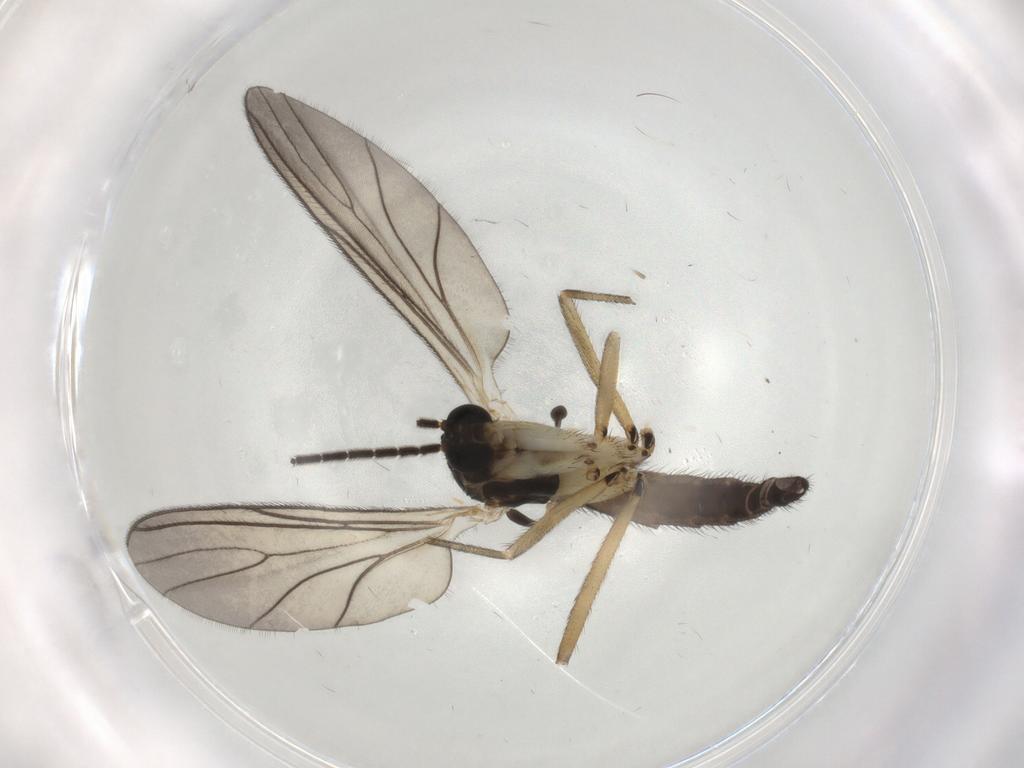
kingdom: Animalia
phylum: Arthropoda
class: Insecta
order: Diptera
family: Sciaridae
